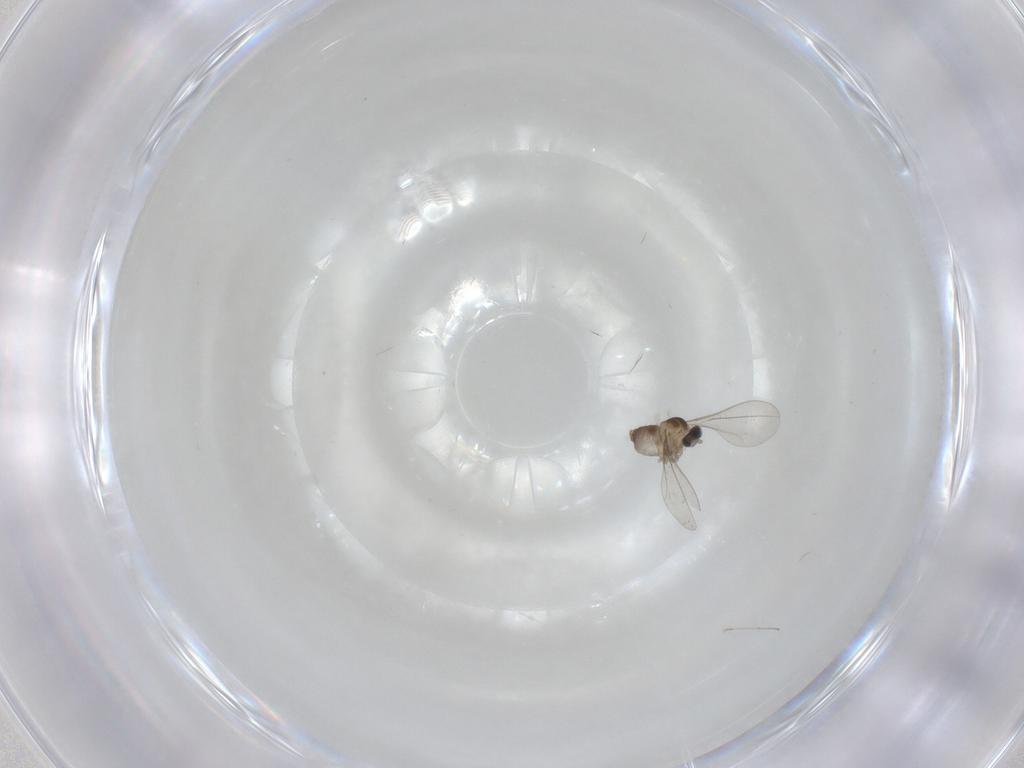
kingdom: Animalia
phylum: Arthropoda
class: Insecta
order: Diptera
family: Cecidomyiidae
